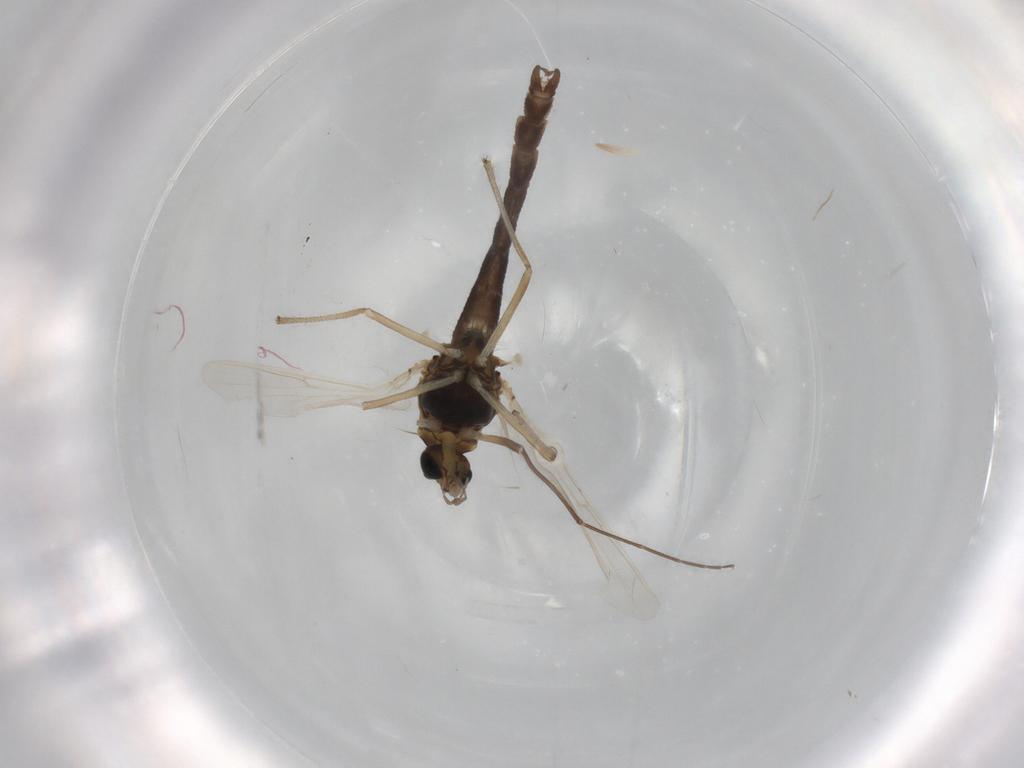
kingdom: Animalia
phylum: Arthropoda
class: Insecta
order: Diptera
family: Chironomidae
